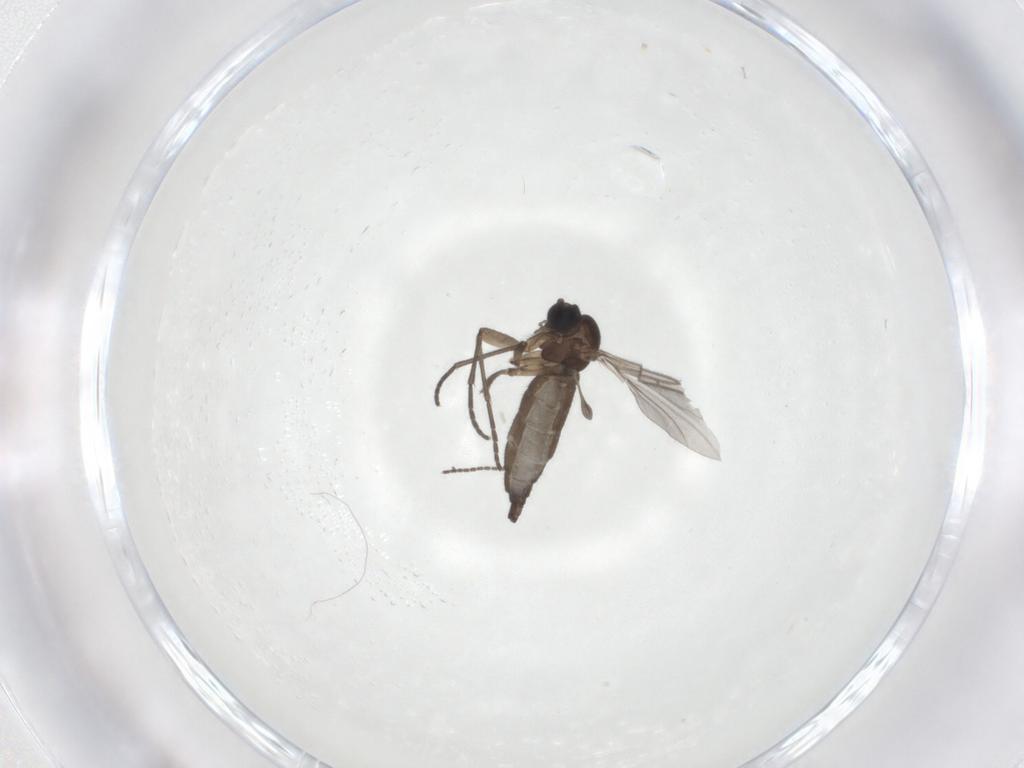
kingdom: Animalia
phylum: Arthropoda
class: Insecta
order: Diptera
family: Sciaridae
